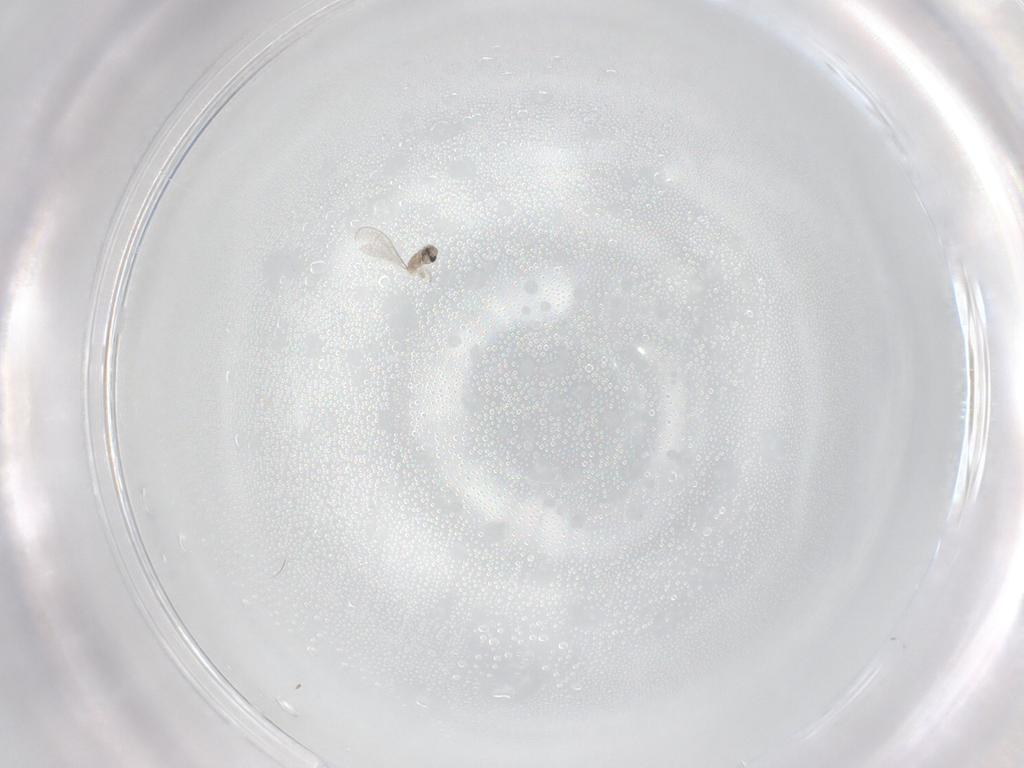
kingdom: Animalia
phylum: Arthropoda
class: Insecta
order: Diptera
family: Cecidomyiidae
